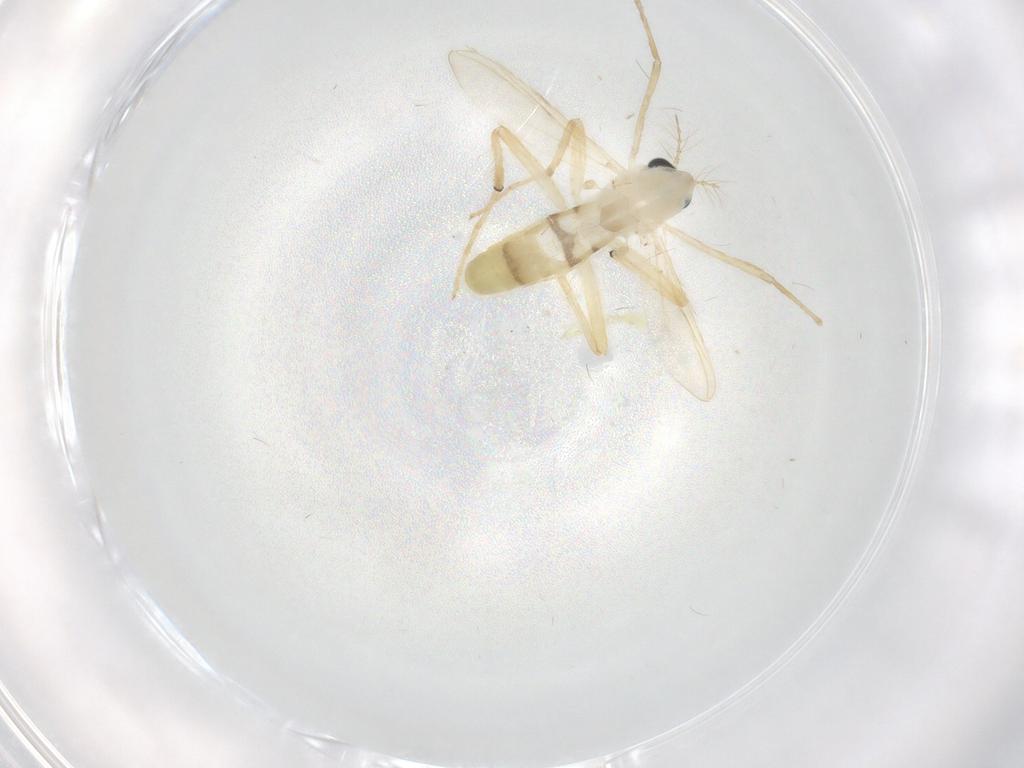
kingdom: Animalia
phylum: Arthropoda
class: Insecta
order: Diptera
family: Chironomidae
